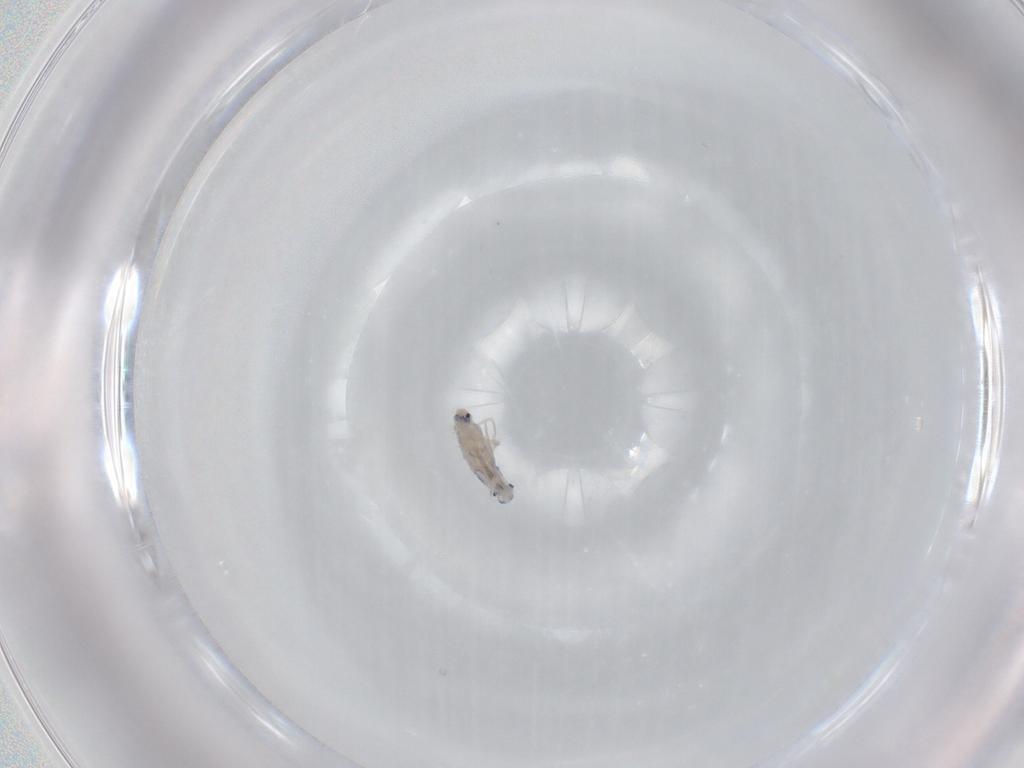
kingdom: Animalia
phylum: Arthropoda
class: Collembola
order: Entomobryomorpha
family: Entomobryidae
